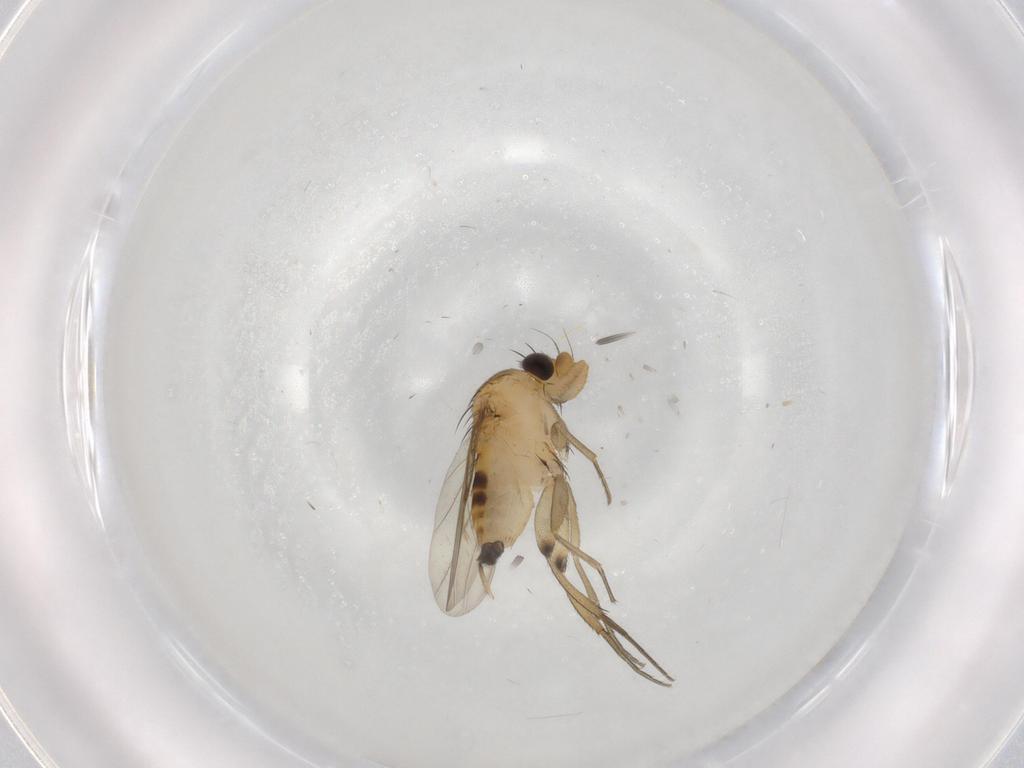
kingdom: Animalia
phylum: Arthropoda
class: Insecta
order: Diptera
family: Phoridae
